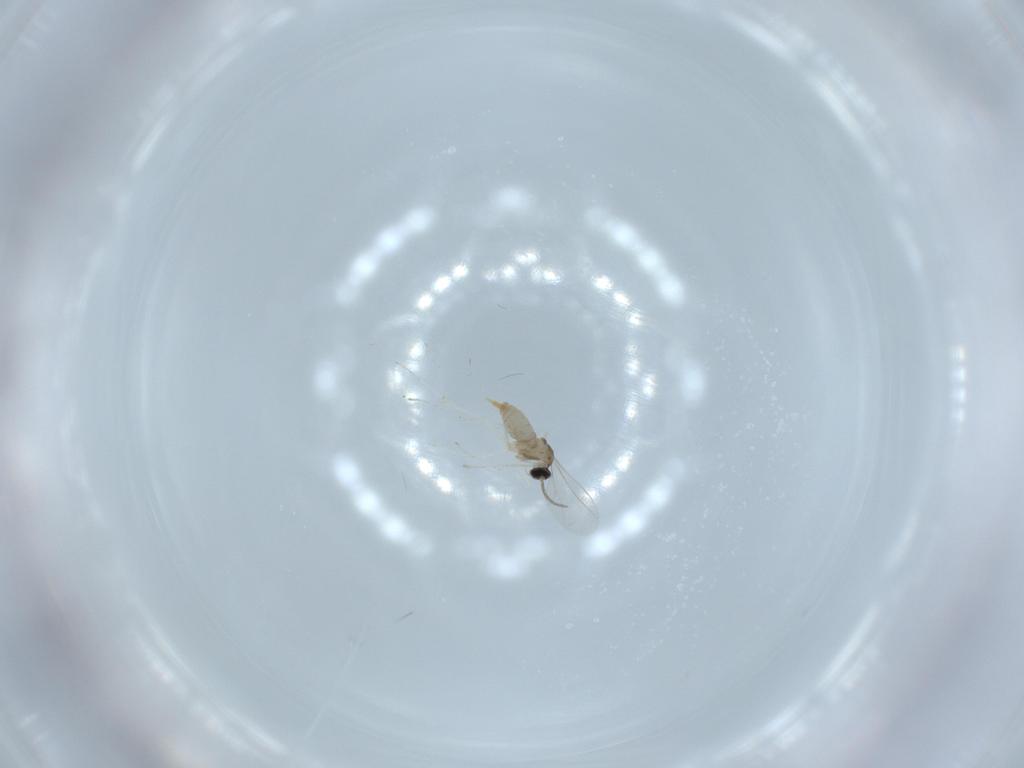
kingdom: Animalia
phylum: Arthropoda
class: Insecta
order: Diptera
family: Cecidomyiidae
